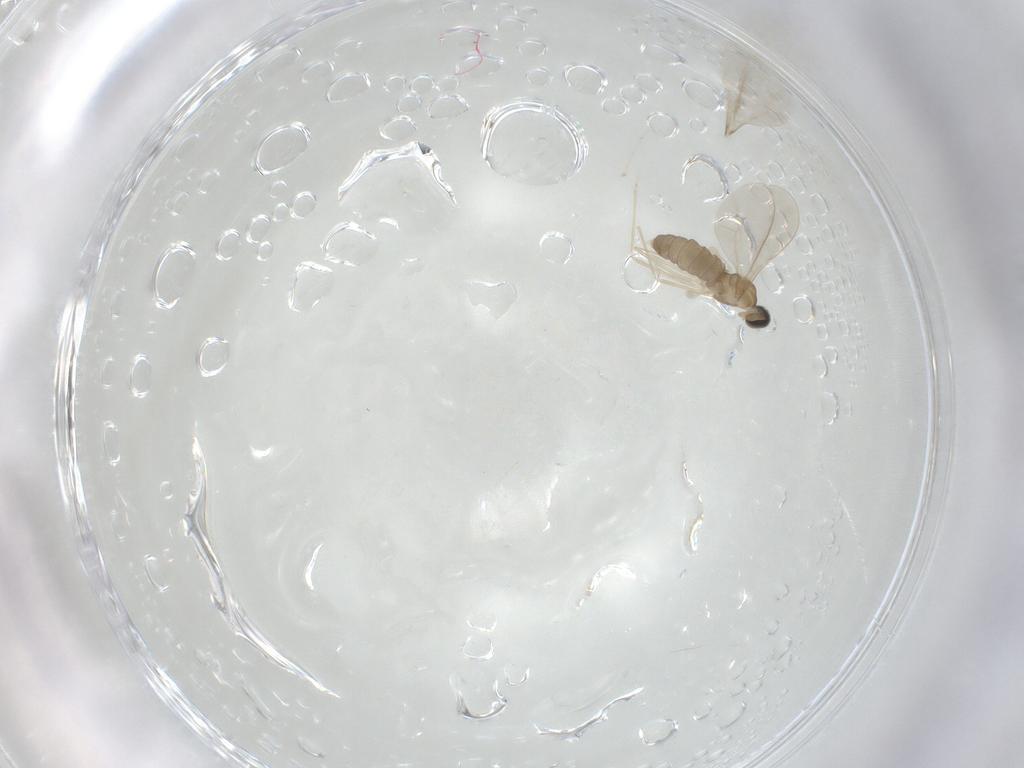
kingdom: Animalia
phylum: Arthropoda
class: Insecta
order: Diptera
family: Cecidomyiidae
